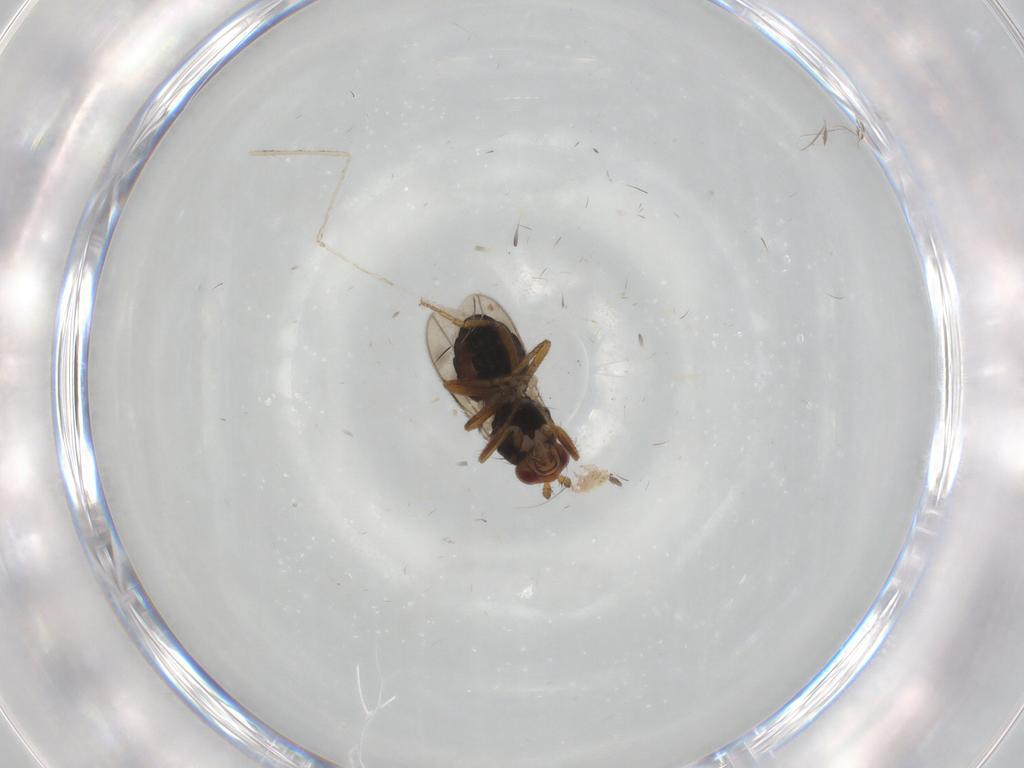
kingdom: Animalia
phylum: Arthropoda
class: Insecta
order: Diptera
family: Sphaeroceridae
